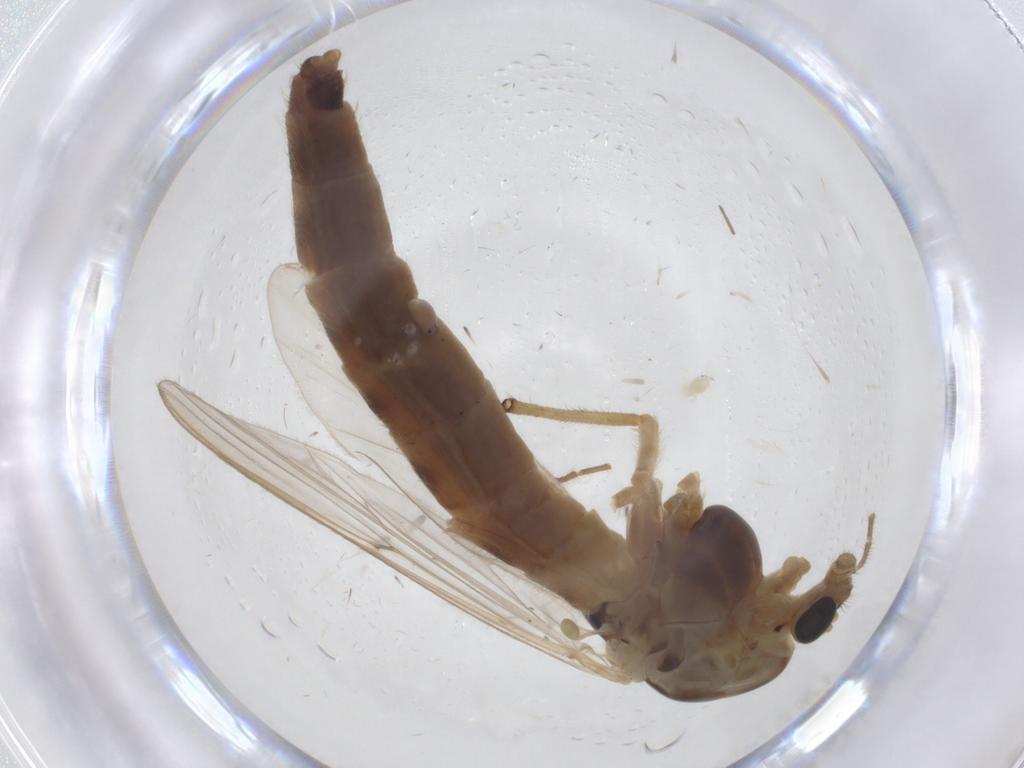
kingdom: Animalia
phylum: Arthropoda
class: Insecta
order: Diptera
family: Chironomidae
